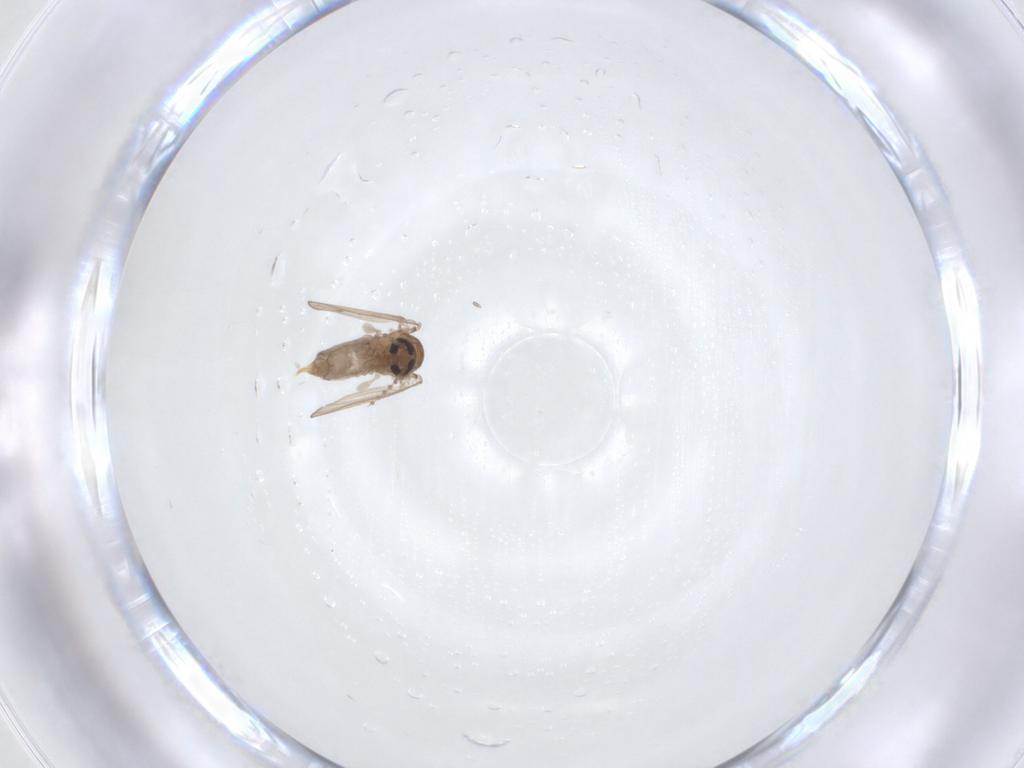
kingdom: Animalia
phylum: Arthropoda
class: Insecta
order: Diptera
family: Psychodidae
